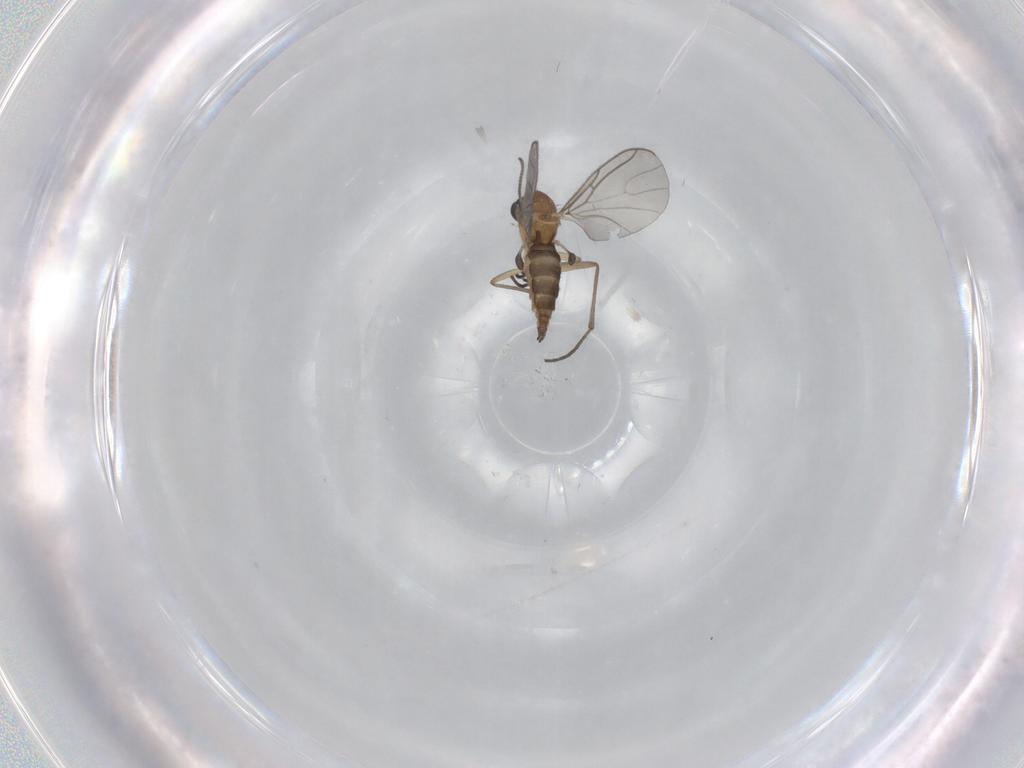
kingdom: Animalia
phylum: Arthropoda
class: Insecta
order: Diptera
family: Sciaridae
